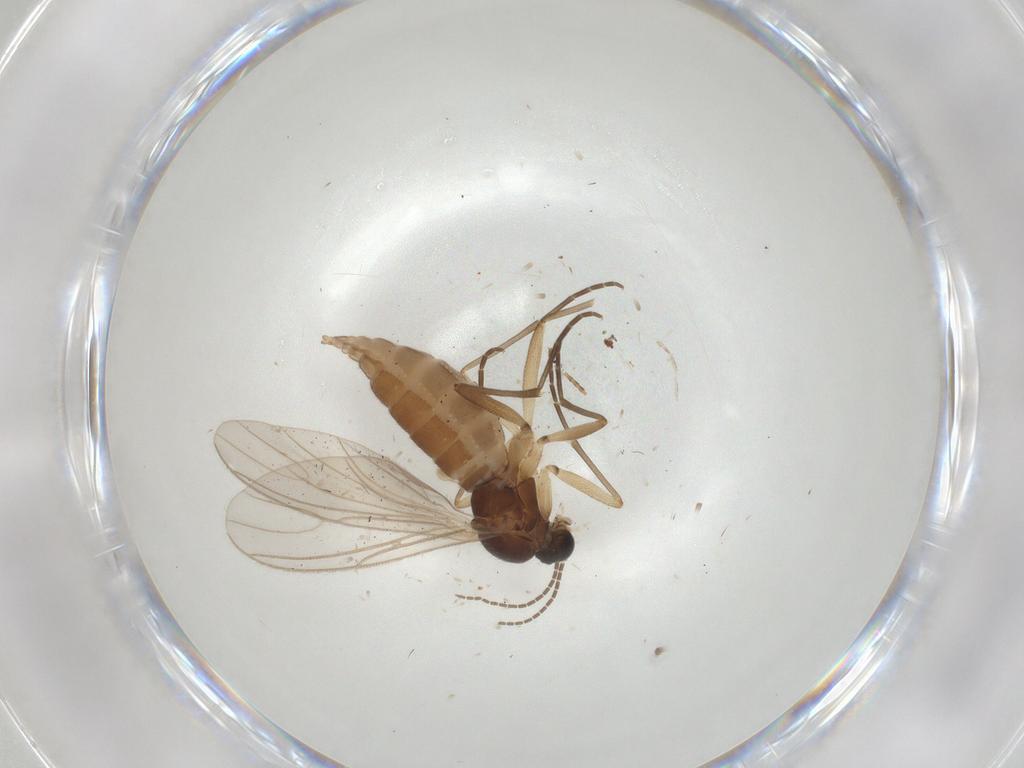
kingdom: Animalia
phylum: Arthropoda
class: Insecta
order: Diptera
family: Sciaridae
